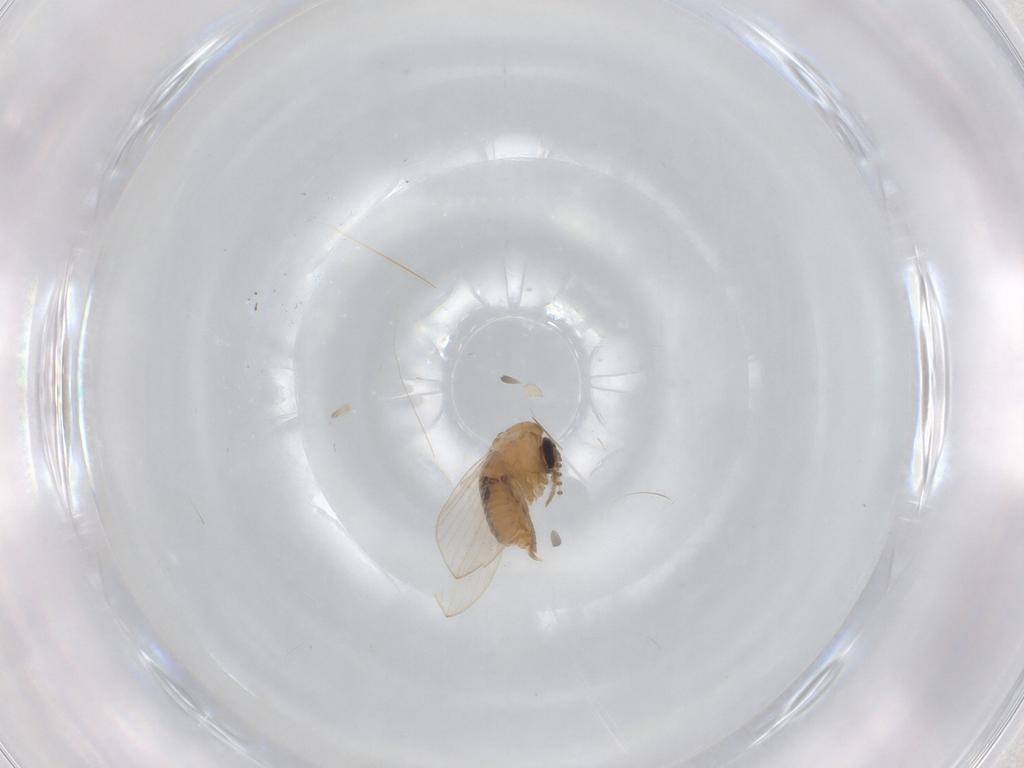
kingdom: Animalia
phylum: Arthropoda
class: Insecta
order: Diptera
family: Psychodidae
